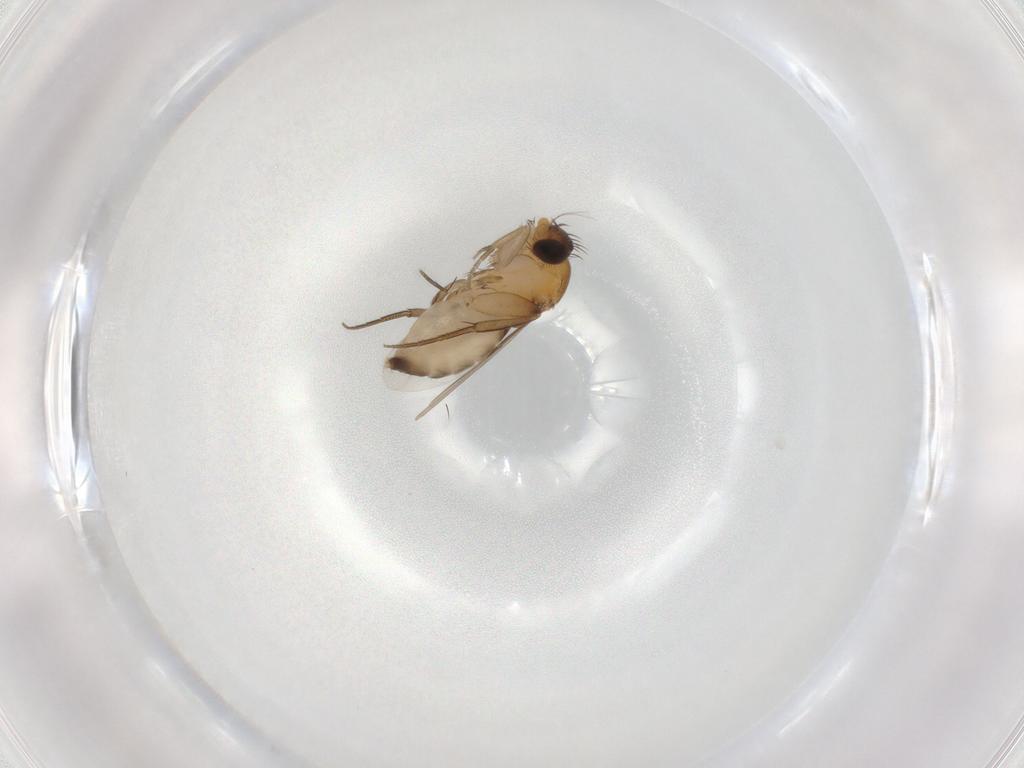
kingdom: Animalia
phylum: Arthropoda
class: Insecta
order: Diptera
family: Phoridae
